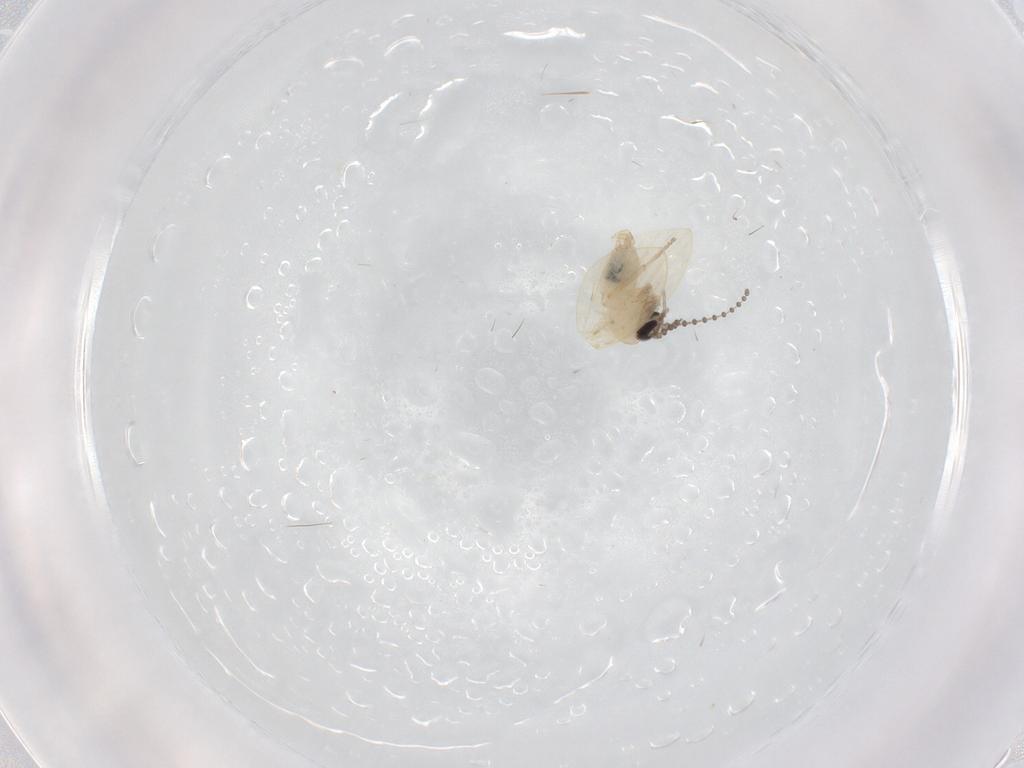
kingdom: Animalia
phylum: Arthropoda
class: Insecta
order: Diptera
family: Psychodidae
